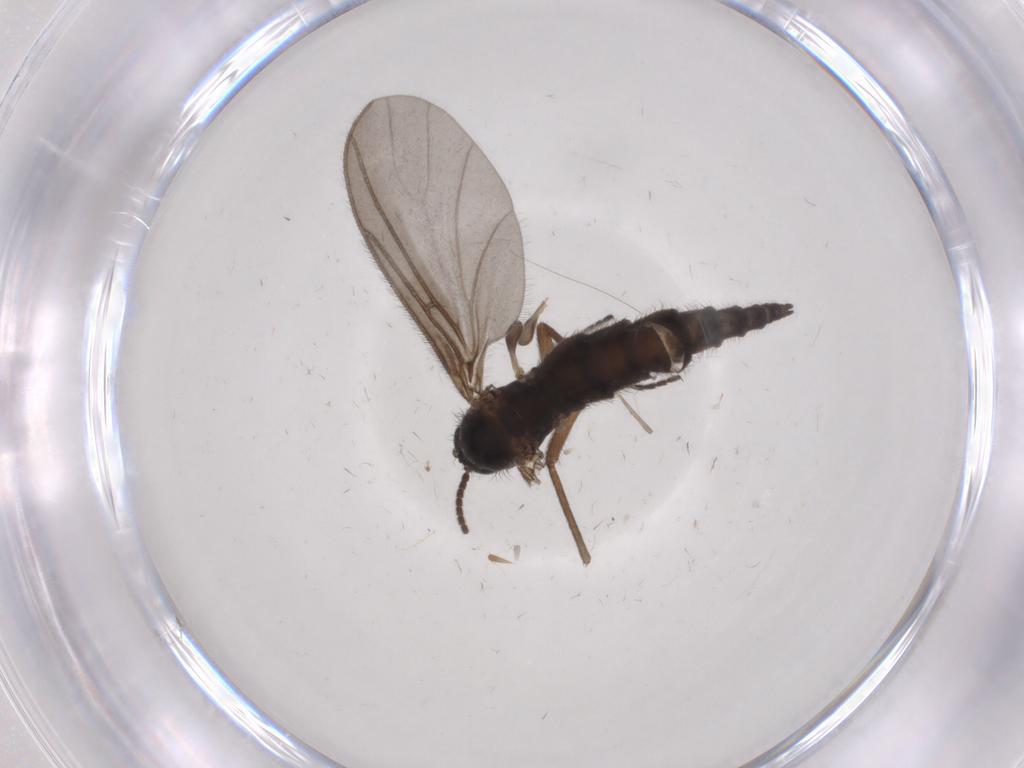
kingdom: Animalia
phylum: Arthropoda
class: Insecta
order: Diptera
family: Sciaridae
